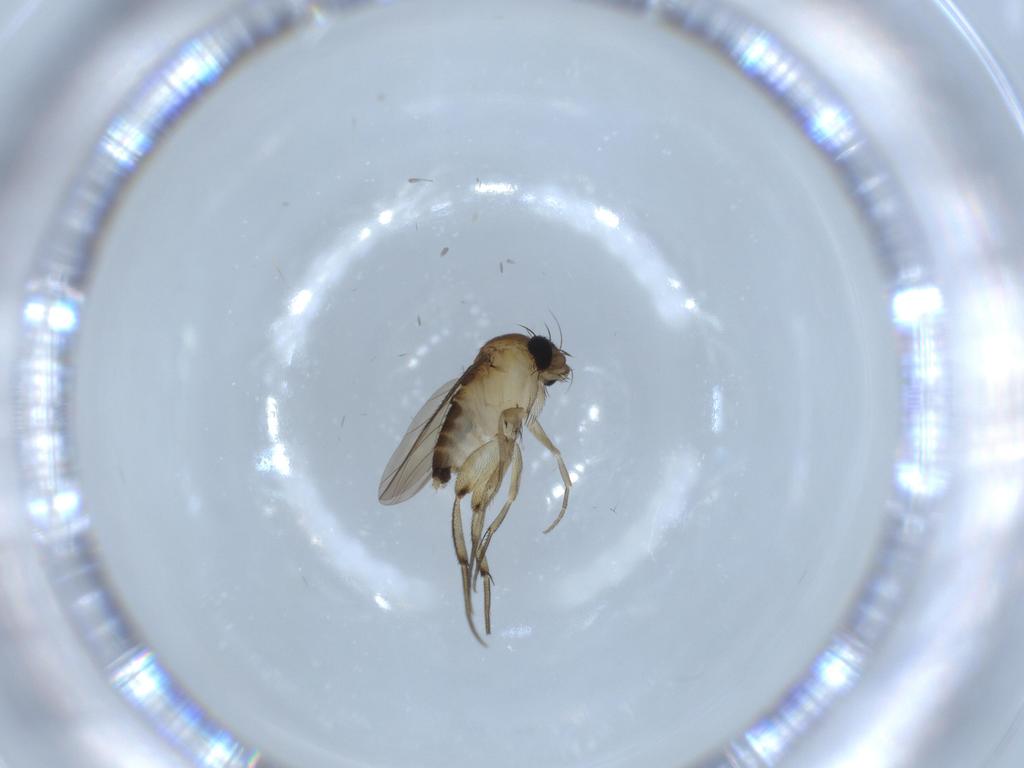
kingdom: Animalia
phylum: Arthropoda
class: Insecta
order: Diptera
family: Phoridae
